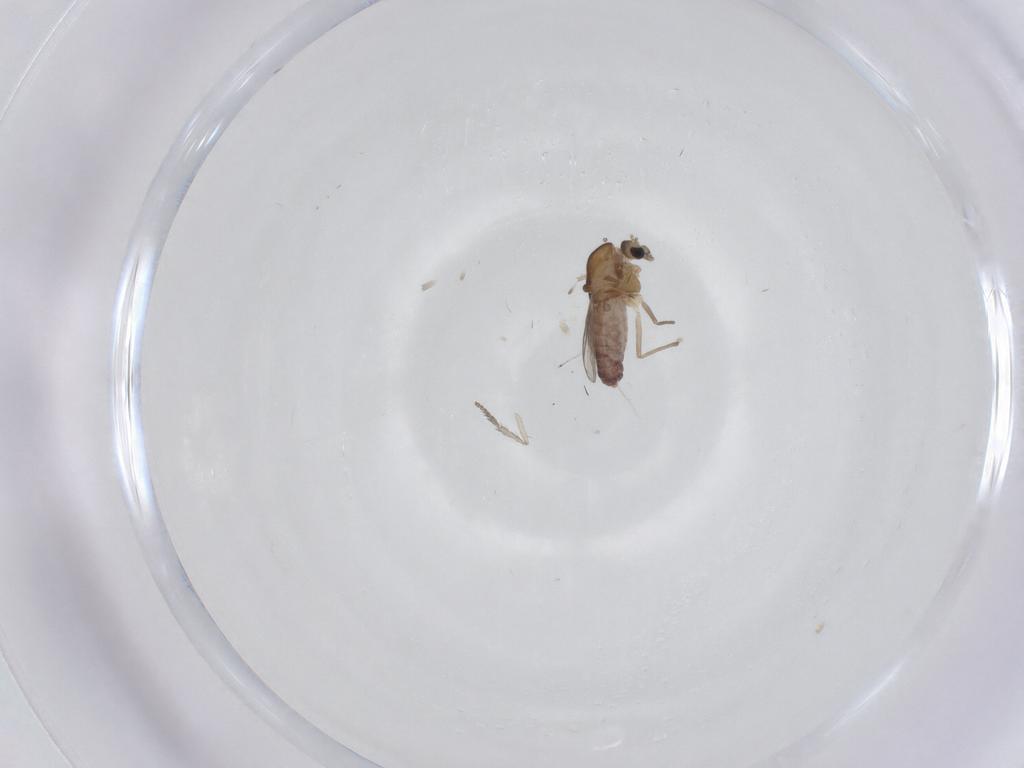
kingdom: Animalia
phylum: Arthropoda
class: Insecta
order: Diptera
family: Chironomidae
